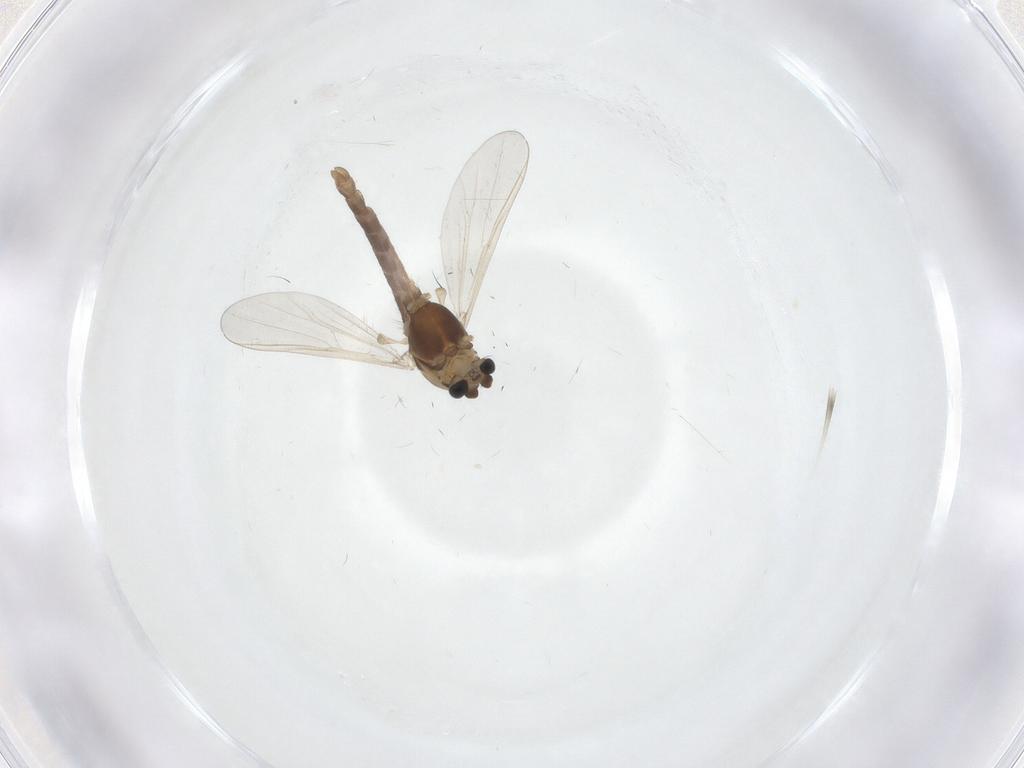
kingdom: Animalia
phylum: Arthropoda
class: Insecta
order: Diptera
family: Chironomidae
